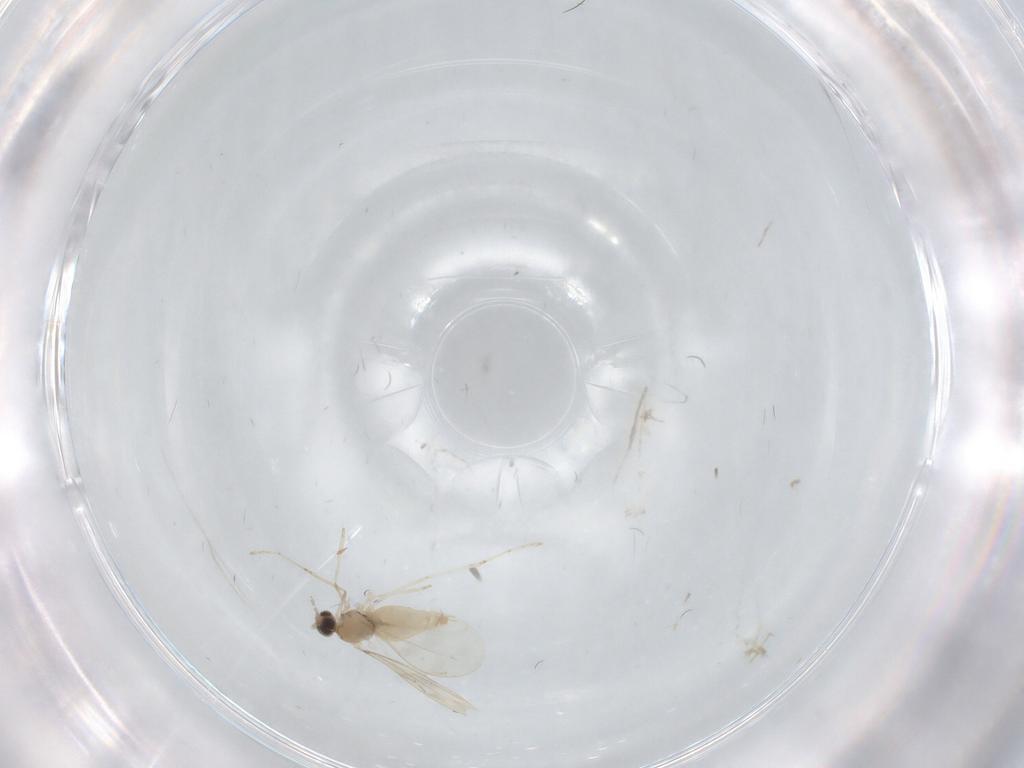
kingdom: Animalia
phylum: Arthropoda
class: Insecta
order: Diptera
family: Cecidomyiidae
